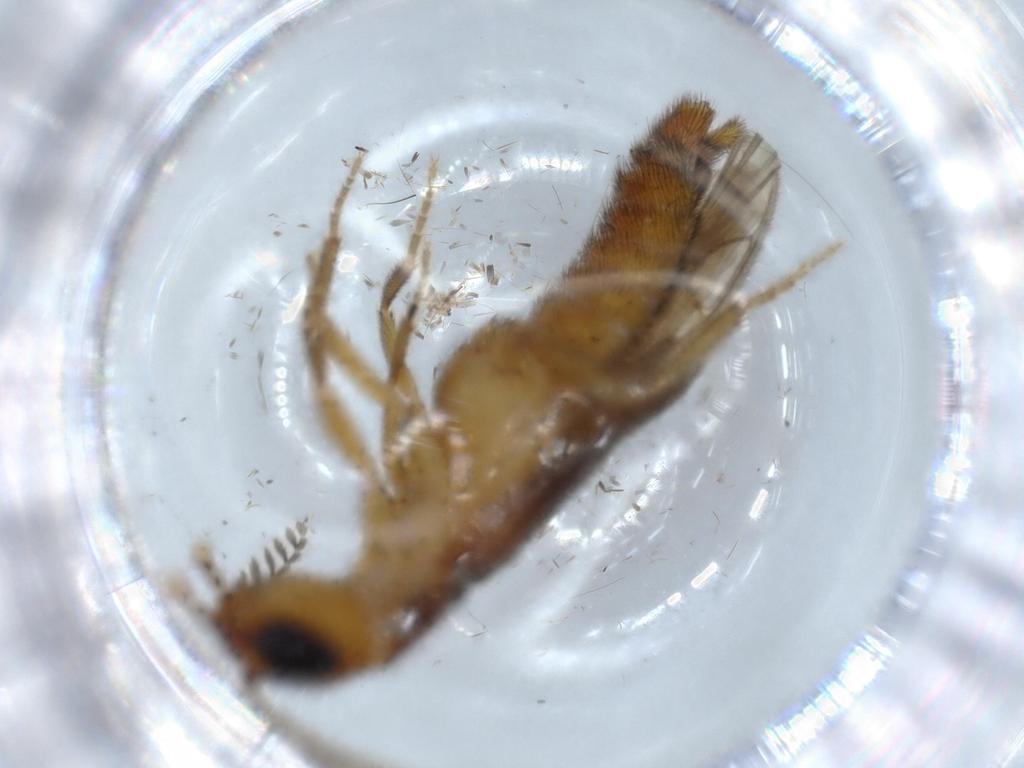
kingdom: Animalia
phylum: Arthropoda
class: Insecta
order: Coleoptera
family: Curculionidae
